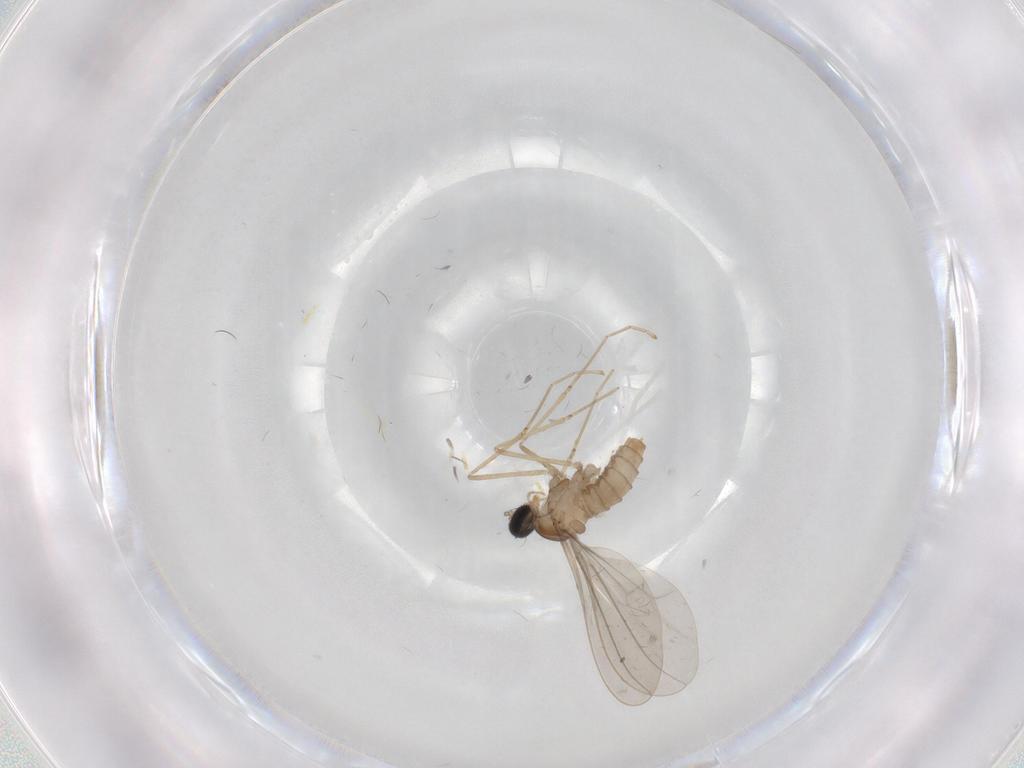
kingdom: Animalia
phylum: Arthropoda
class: Insecta
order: Diptera
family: Cecidomyiidae
